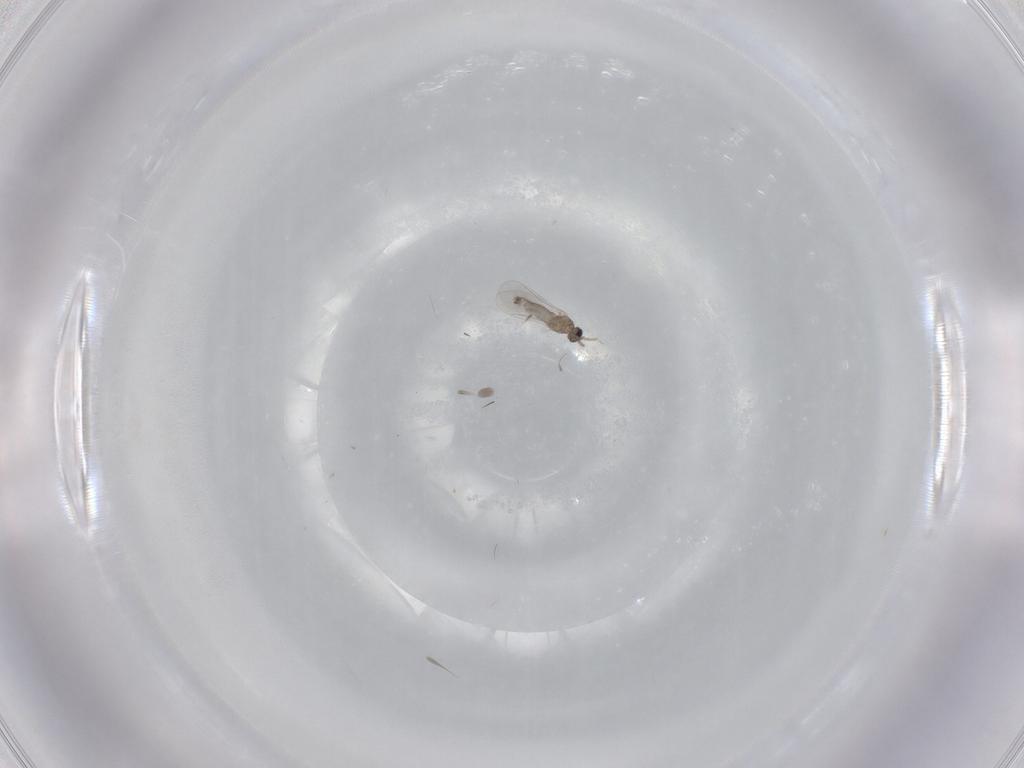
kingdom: Animalia
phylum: Arthropoda
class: Insecta
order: Diptera
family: Cecidomyiidae
